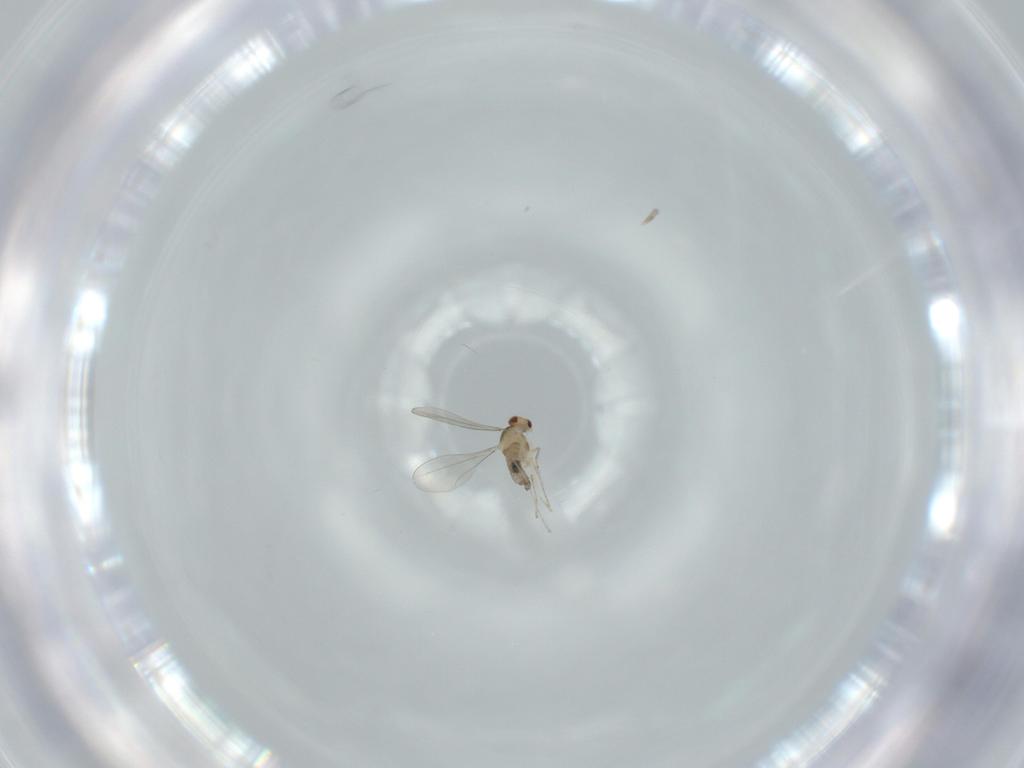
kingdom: Animalia
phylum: Arthropoda
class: Insecta
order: Diptera
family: Cecidomyiidae
